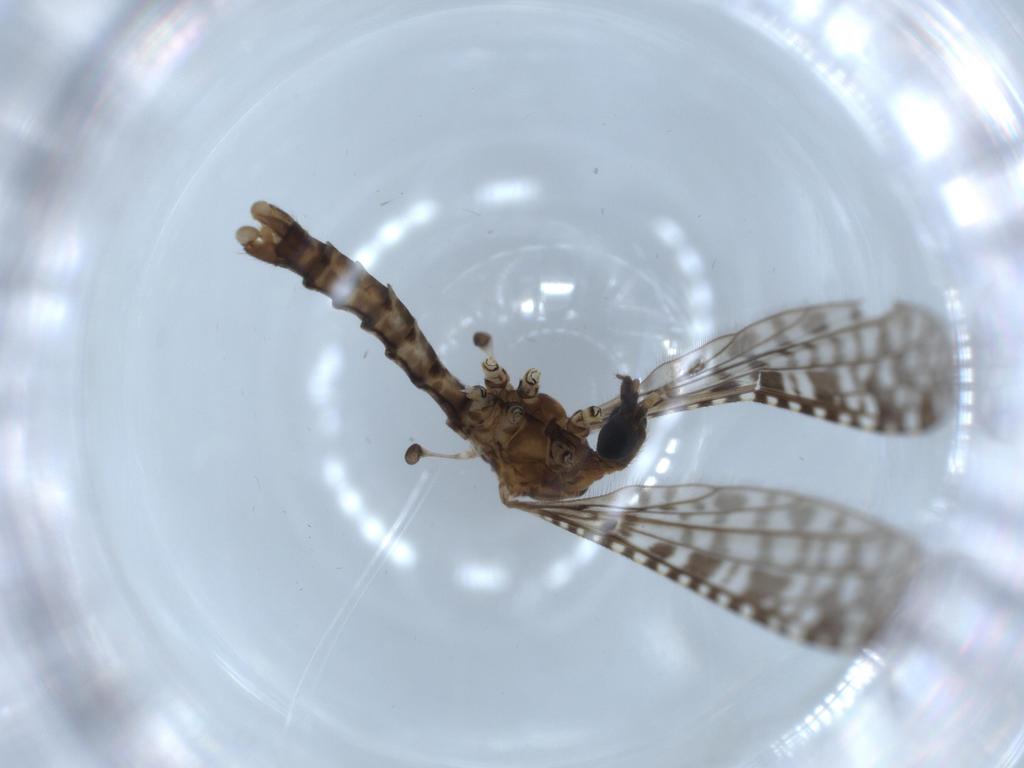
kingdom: Animalia
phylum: Arthropoda
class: Insecta
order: Diptera
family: Limoniidae
